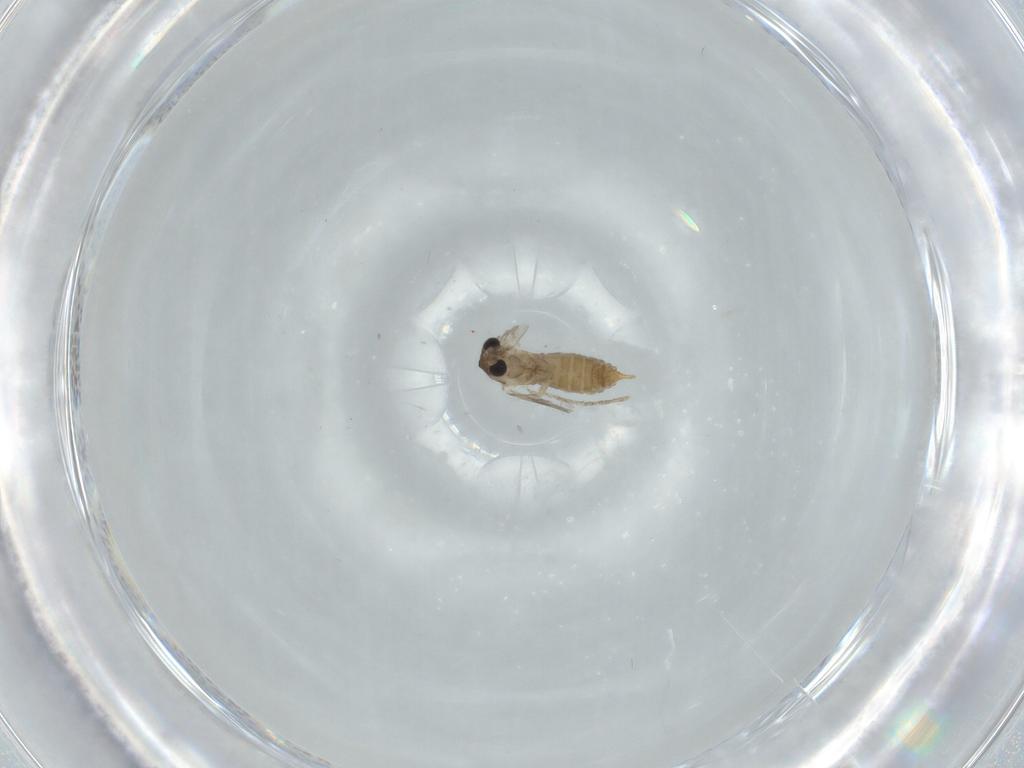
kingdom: Animalia
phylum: Arthropoda
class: Insecta
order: Diptera
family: Psychodidae
